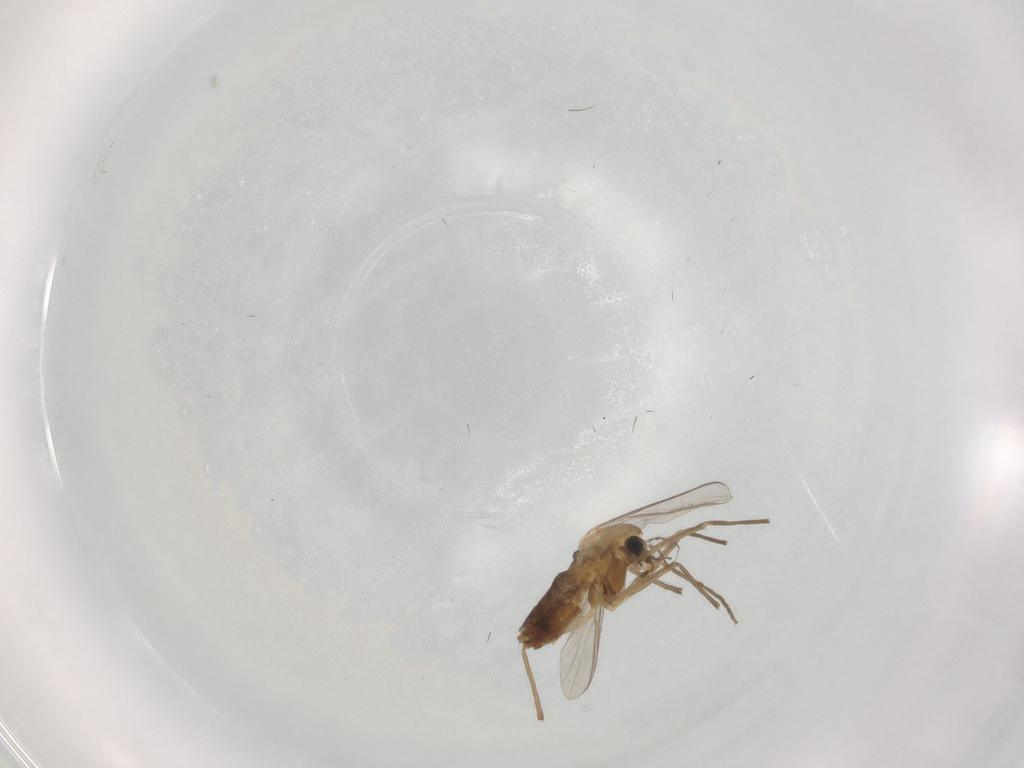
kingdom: Animalia
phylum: Arthropoda
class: Insecta
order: Diptera
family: Chironomidae
